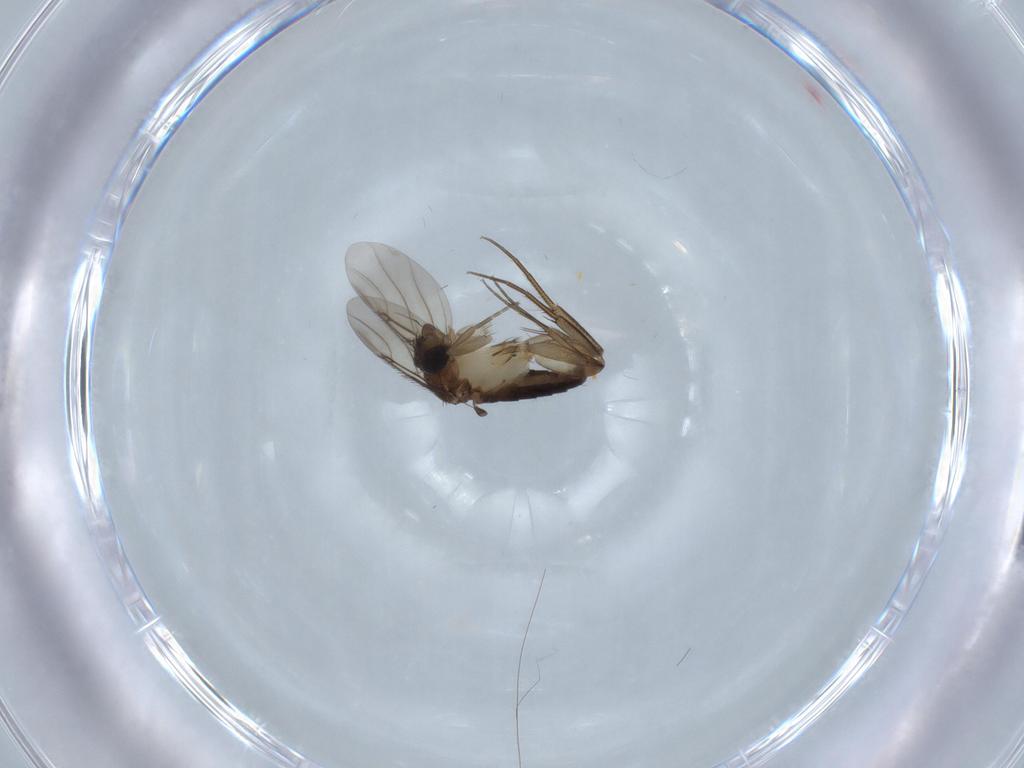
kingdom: Animalia
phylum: Arthropoda
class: Insecta
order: Diptera
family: Phoridae
